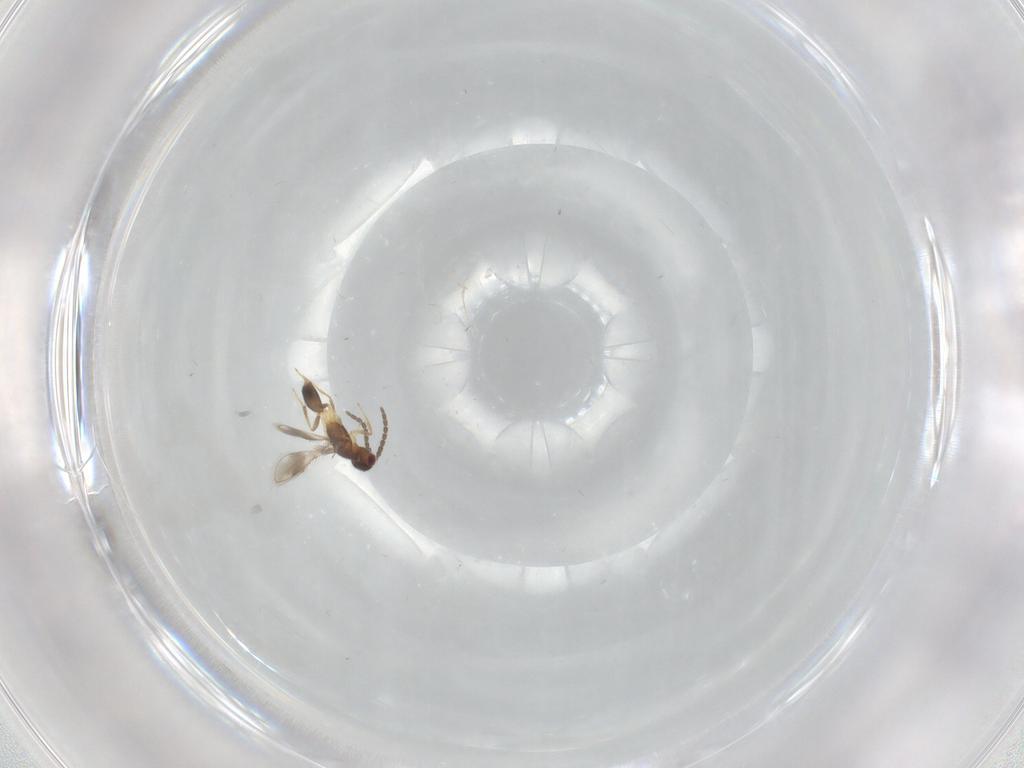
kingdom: Animalia
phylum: Arthropoda
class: Insecta
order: Hymenoptera
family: Pteromalidae
